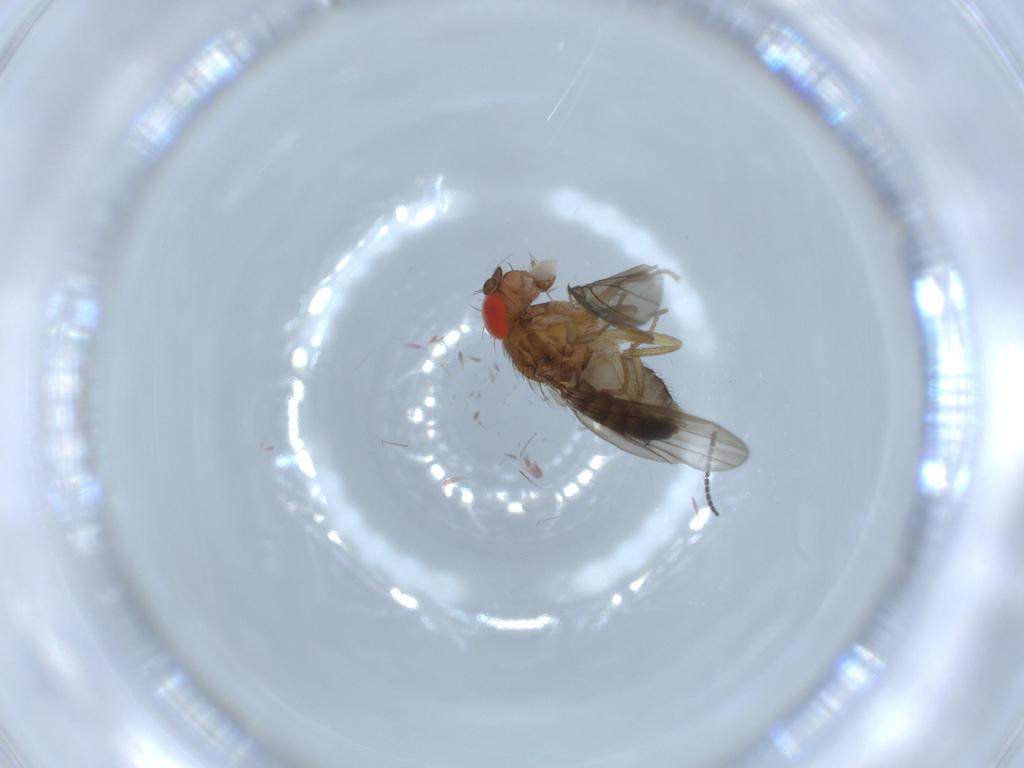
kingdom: Animalia
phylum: Arthropoda
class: Insecta
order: Diptera
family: Drosophilidae
